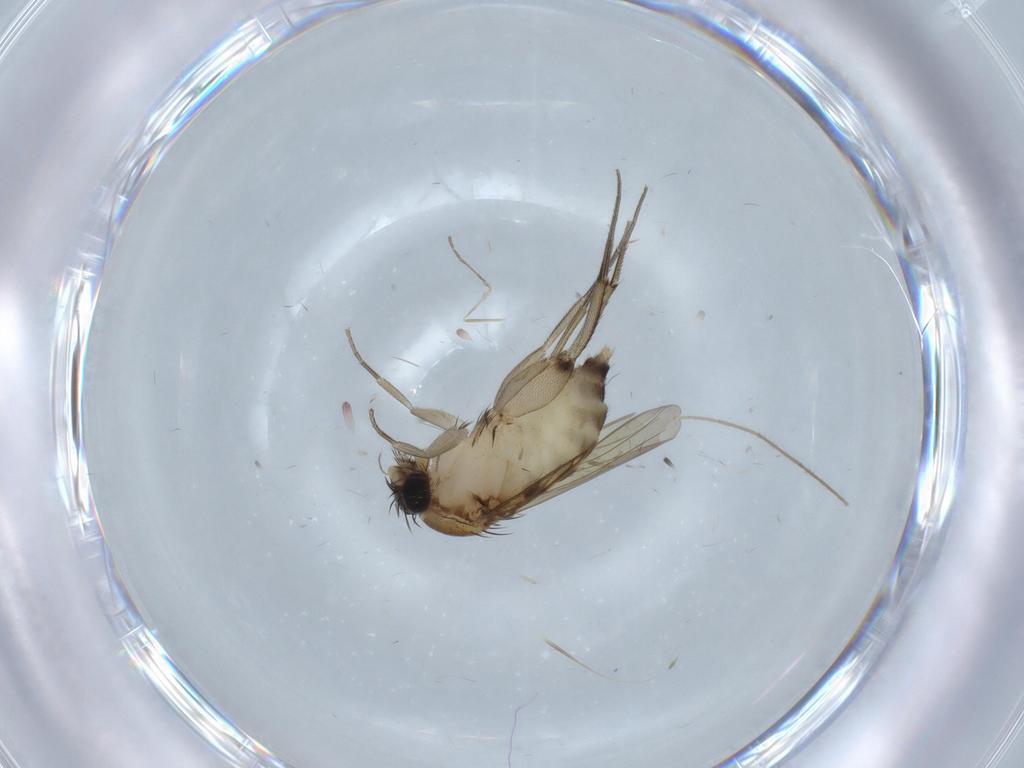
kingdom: Animalia
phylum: Arthropoda
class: Insecta
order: Diptera
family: Phoridae
